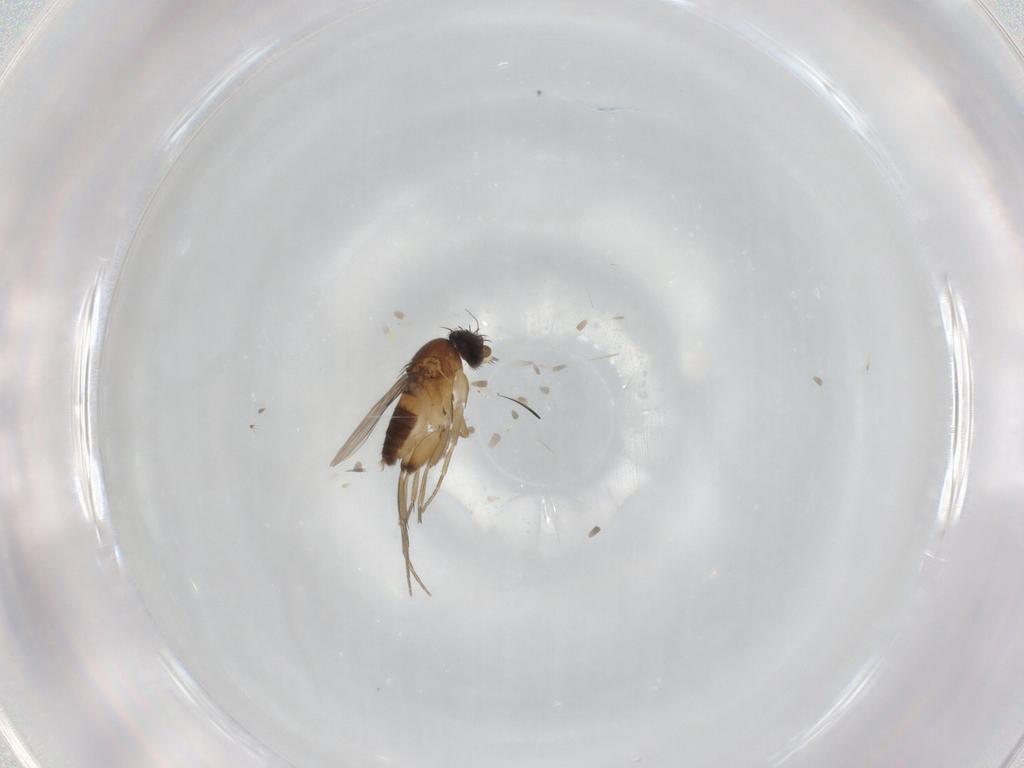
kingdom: Animalia
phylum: Arthropoda
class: Insecta
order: Diptera
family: Phoridae
